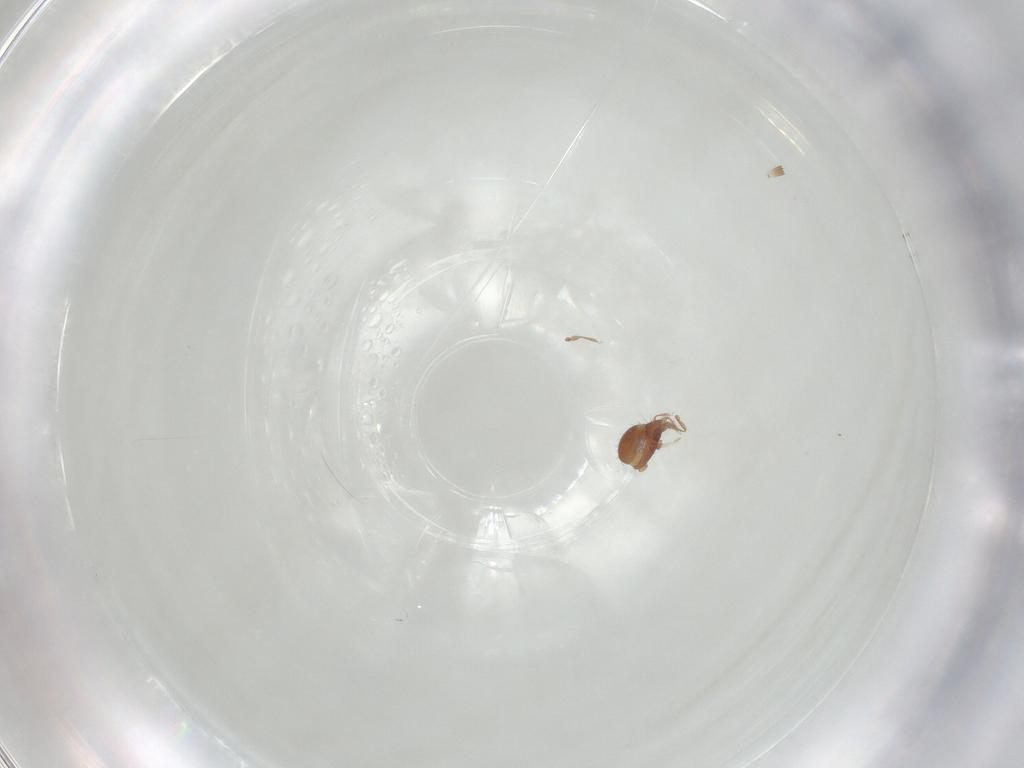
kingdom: Animalia
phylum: Arthropoda
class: Arachnida
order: Sarcoptiformes
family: Oribatulidae
